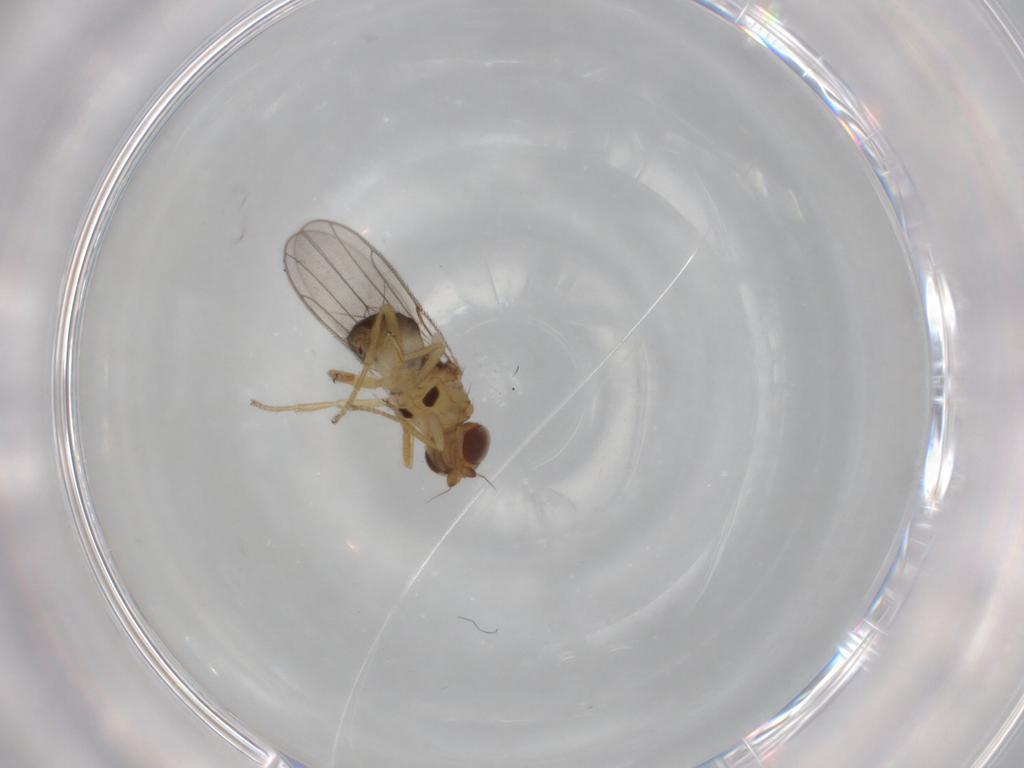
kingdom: Animalia
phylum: Arthropoda
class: Insecta
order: Diptera
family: Chloropidae
